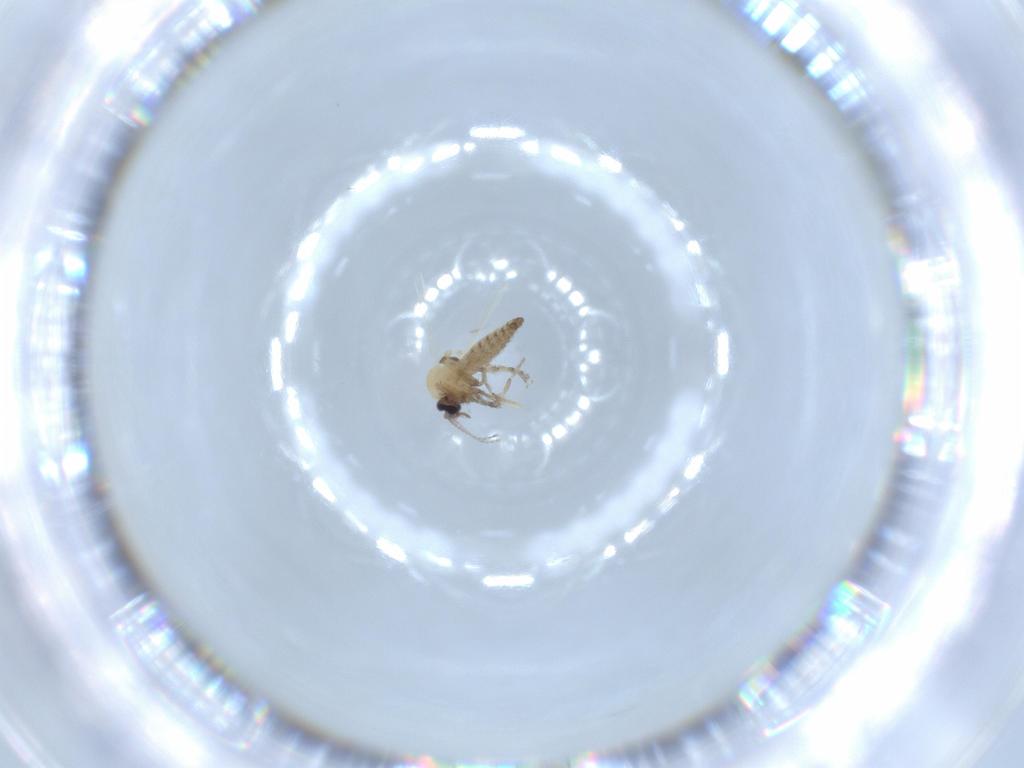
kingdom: Animalia
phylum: Arthropoda
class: Insecta
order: Diptera
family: Ceratopogonidae
